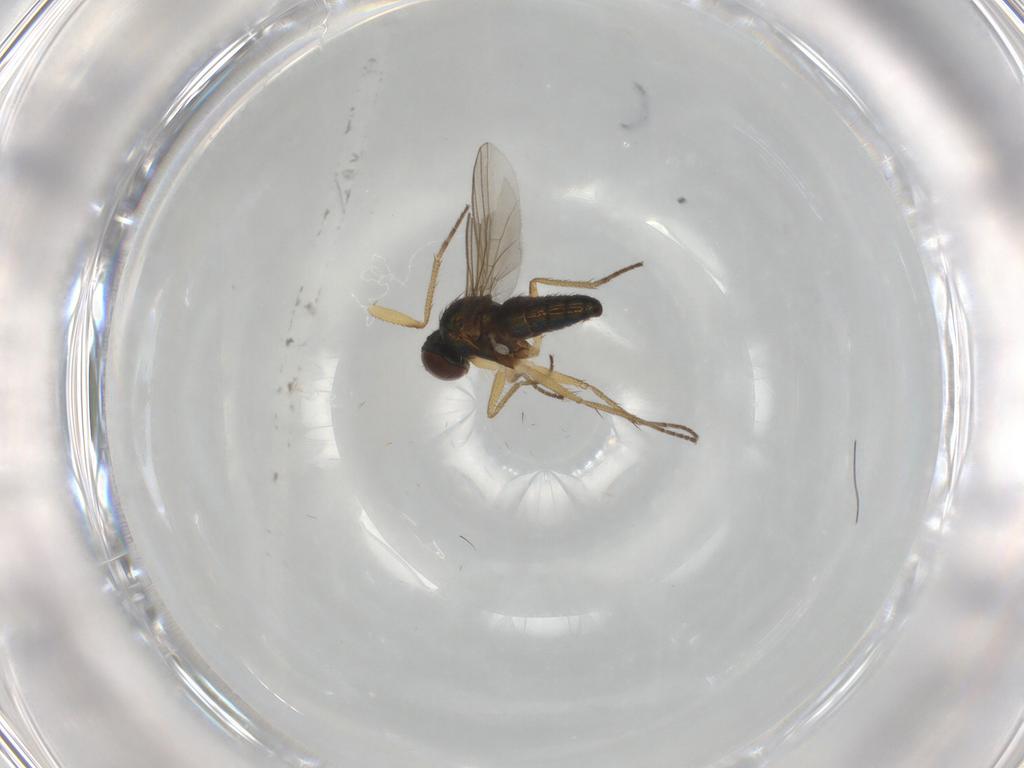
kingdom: Animalia
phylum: Arthropoda
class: Insecta
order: Diptera
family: Dolichopodidae
